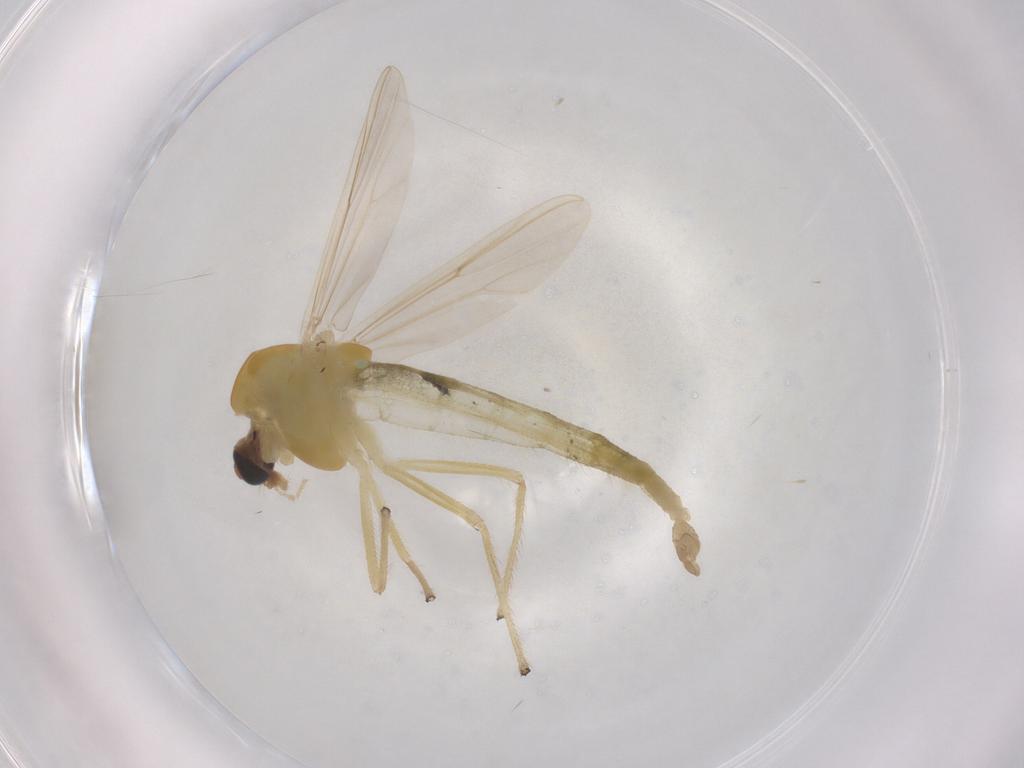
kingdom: Animalia
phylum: Arthropoda
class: Insecta
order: Diptera
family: Chironomidae
